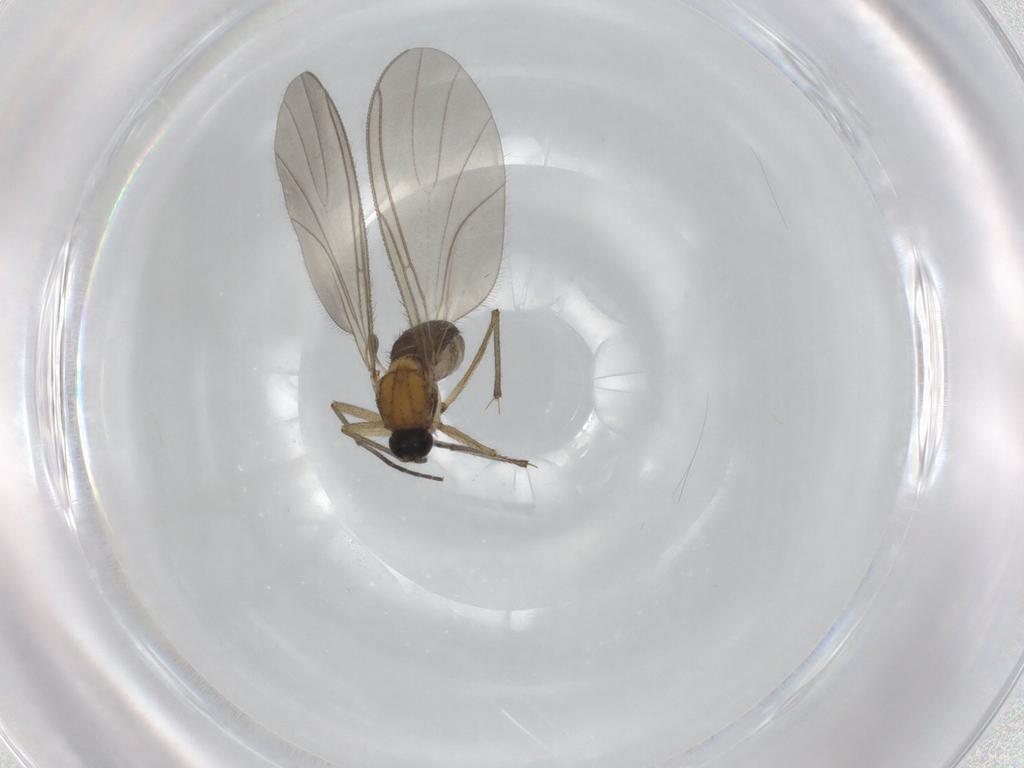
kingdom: Animalia
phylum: Arthropoda
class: Insecta
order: Diptera
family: Sciaridae
